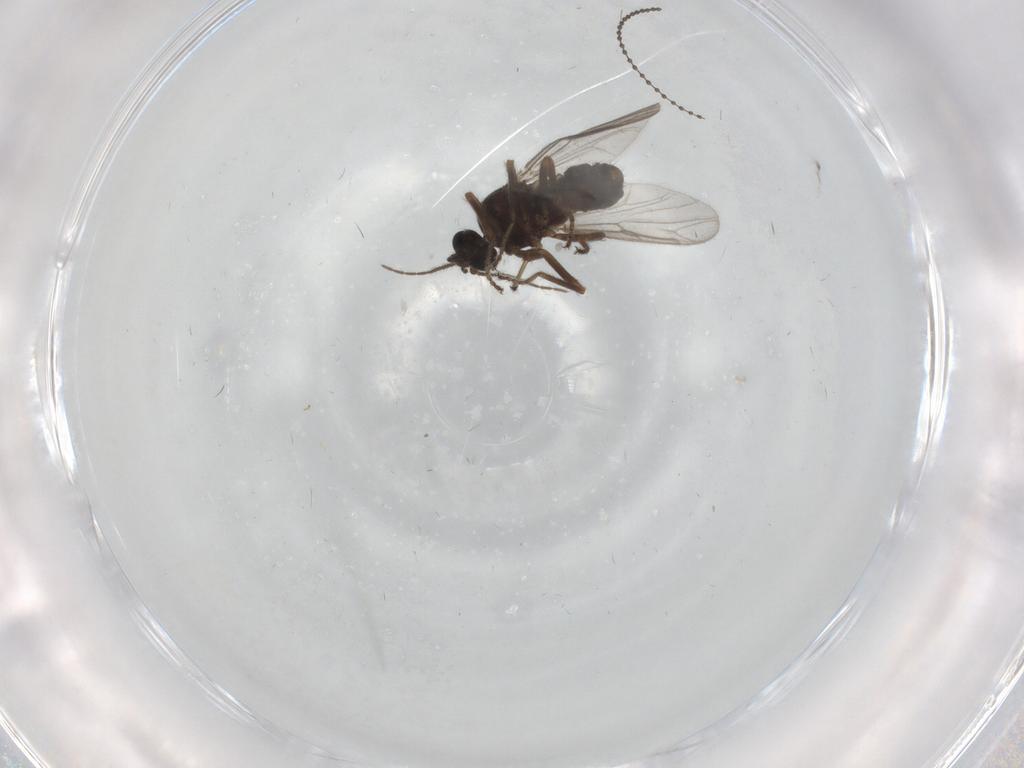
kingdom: Animalia
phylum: Arthropoda
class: Insecta
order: Diptera
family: Ceratopogonidae
